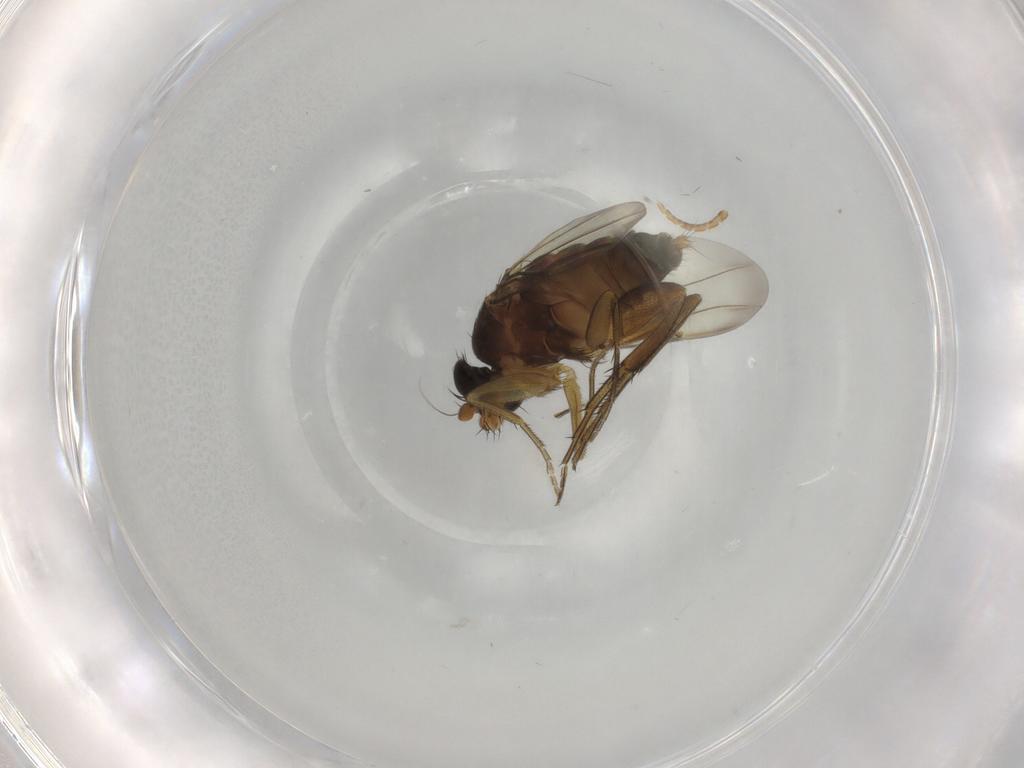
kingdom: Animalia
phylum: Arthropoda
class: Insecta
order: Diptera
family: Phoridae
